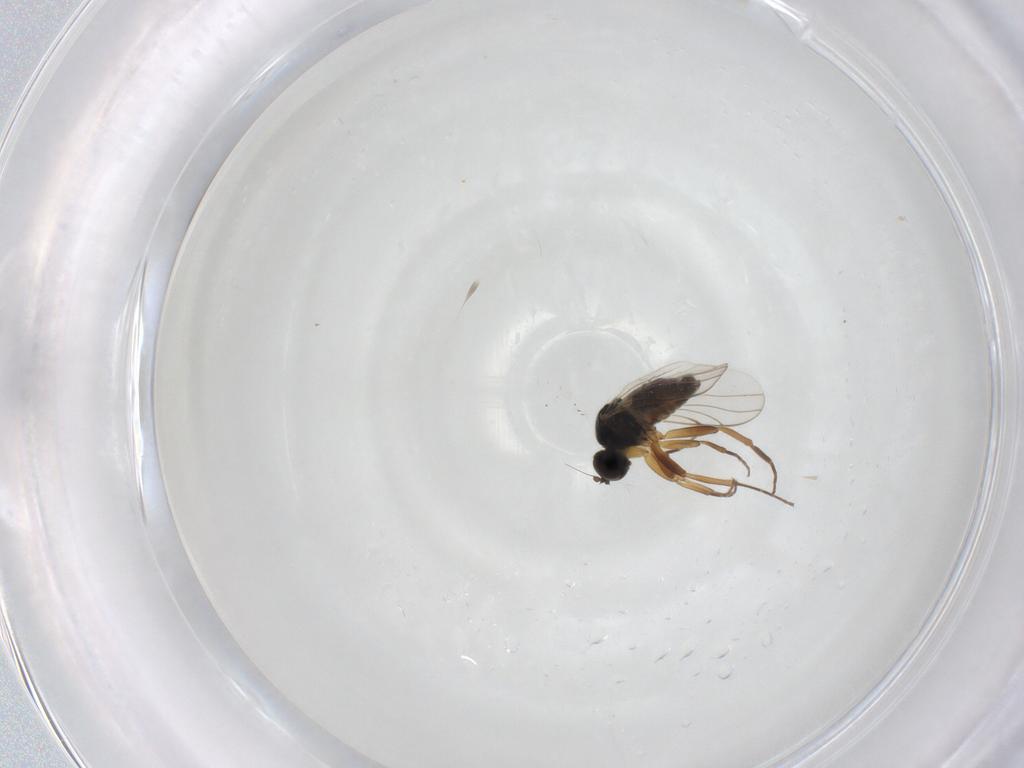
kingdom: Animalia
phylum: Arthropoda
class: Insecta
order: Diptera
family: Hybotidae
